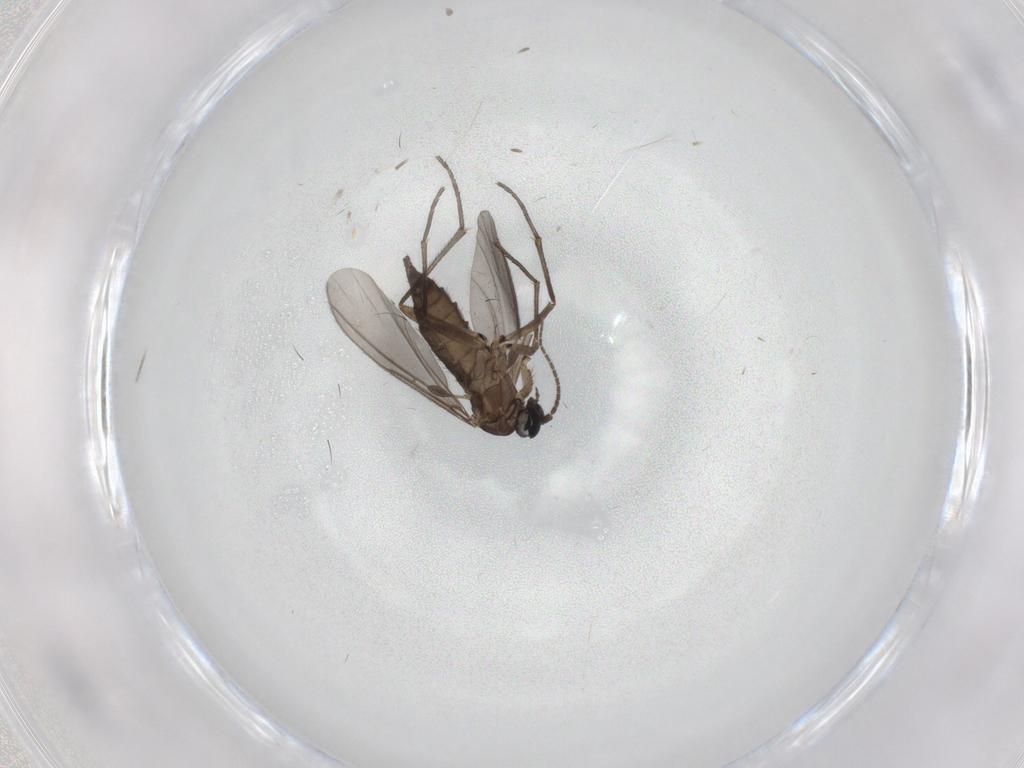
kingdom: Animalia
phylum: Arthropoda
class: Insecta
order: Diptera
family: Sciaridae
